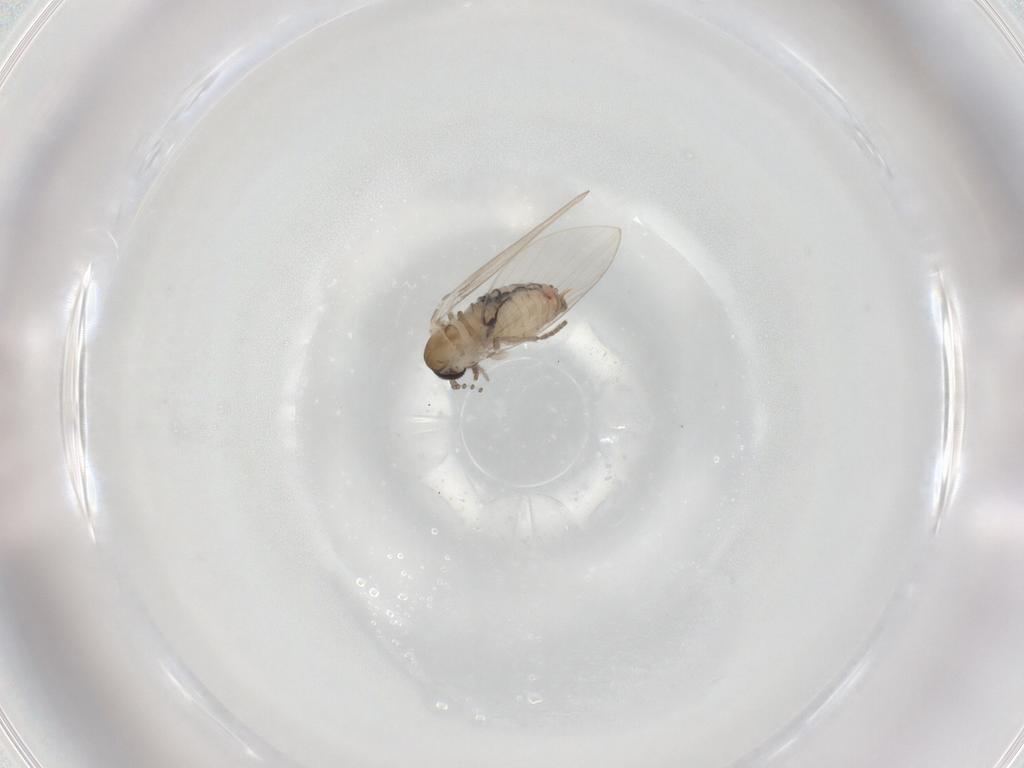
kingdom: Animalia
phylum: Arthropoda
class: Insecta
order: Diptera
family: Psychodidae
